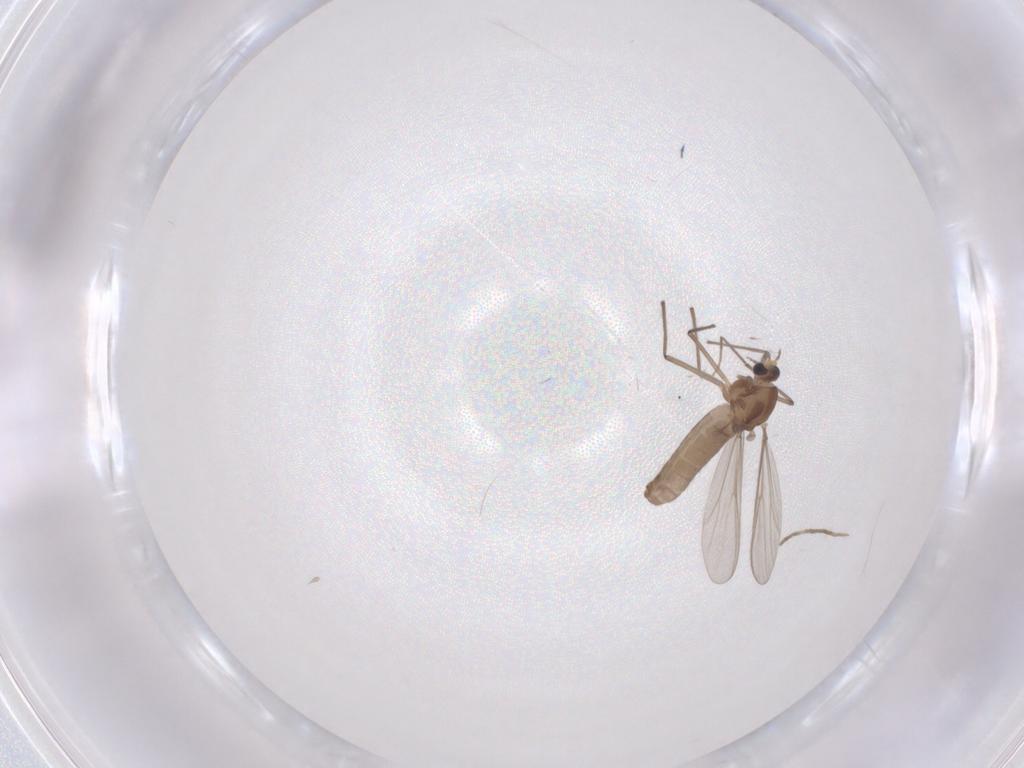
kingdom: Animalia
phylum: Arthropoda
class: Insecta
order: Diptera
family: Chironomidae
